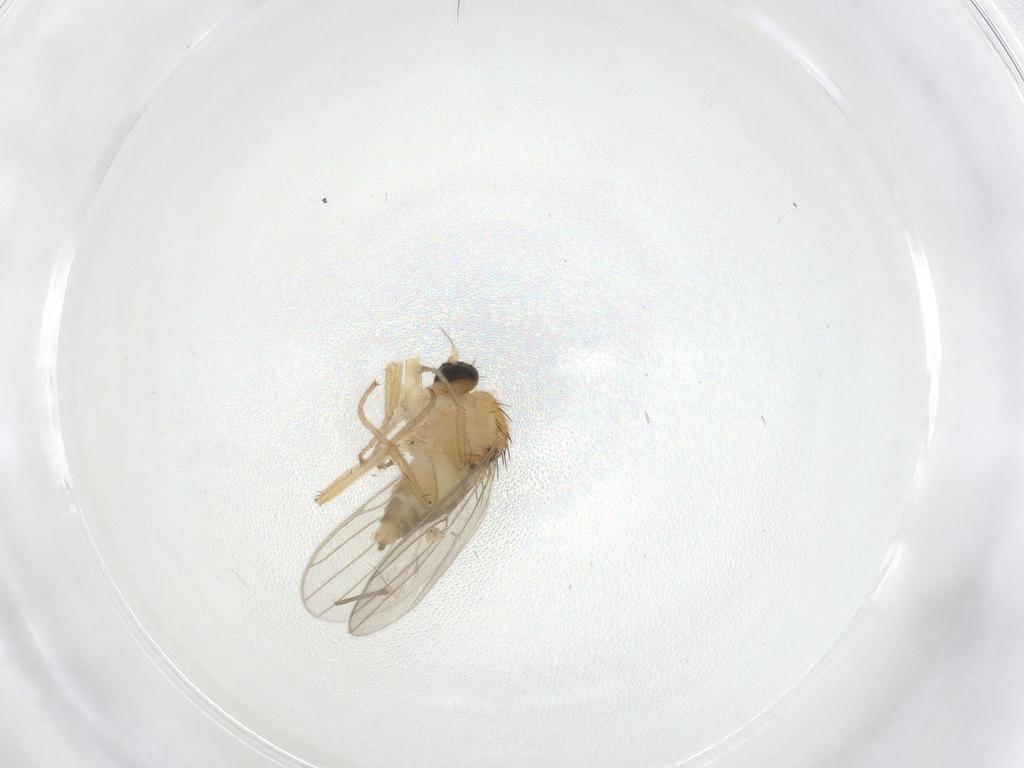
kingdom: Animalia
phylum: Arthropoda
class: Insecta
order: Diptera
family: Hybotidae
